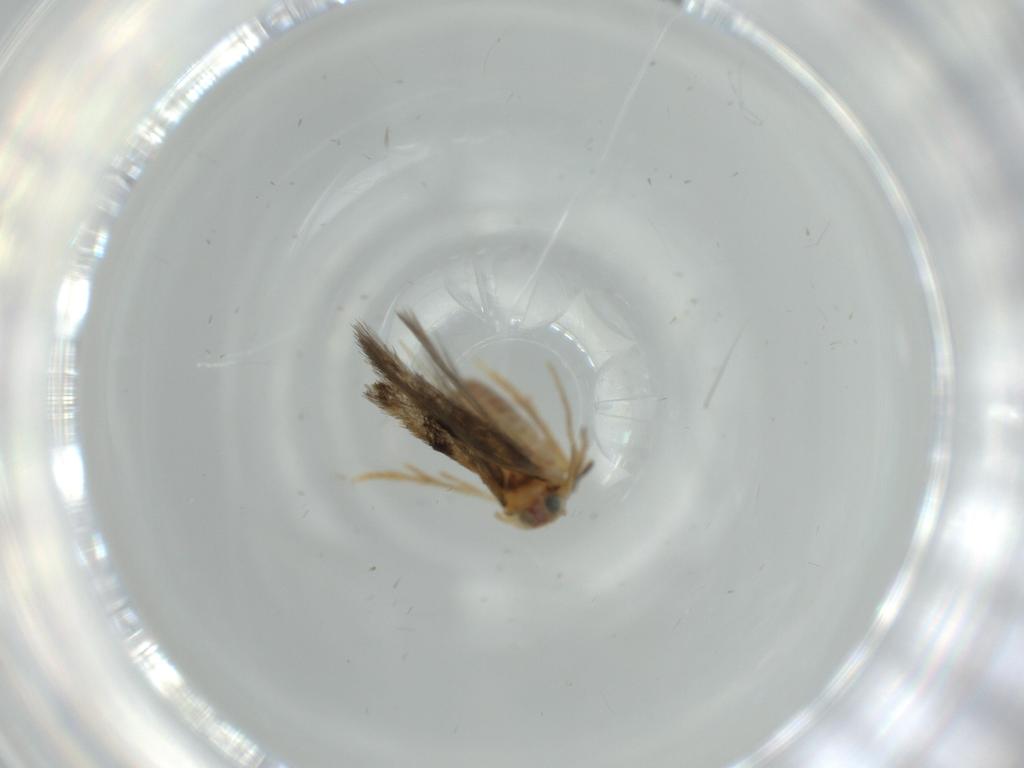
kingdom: Animalia
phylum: Arthropoda
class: Insecta
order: Lepidoptera
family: Nepticulidae
